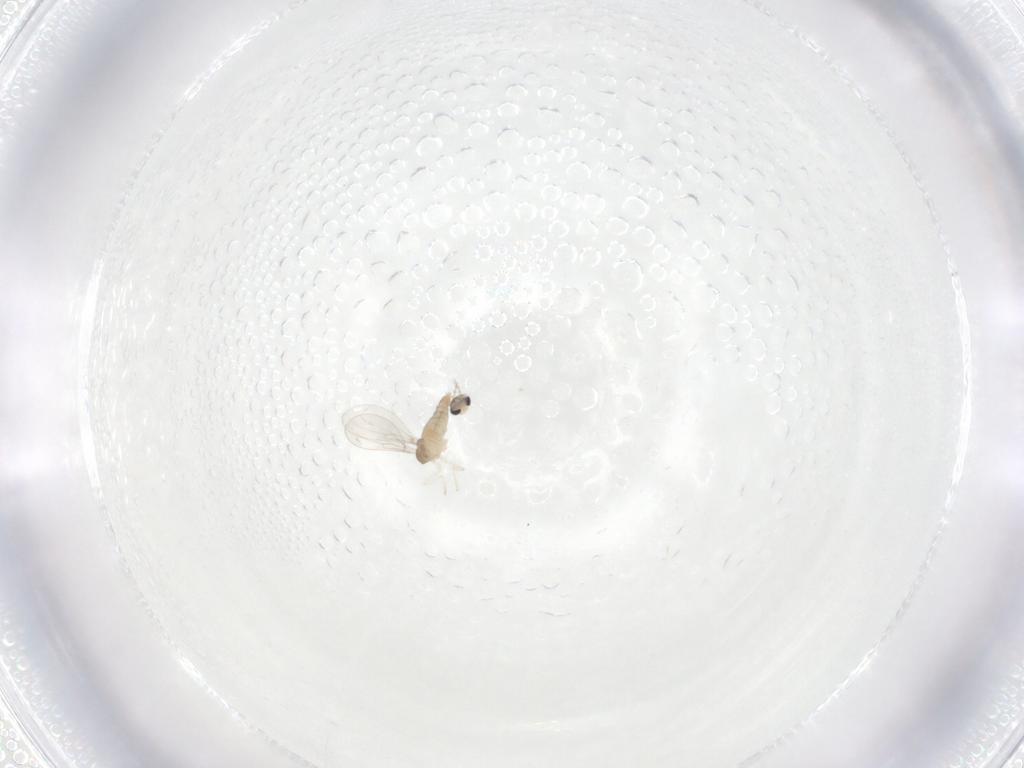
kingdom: Animalia
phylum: Arthropoda
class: Insecta
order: Diptera
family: Cecidomyiidae
